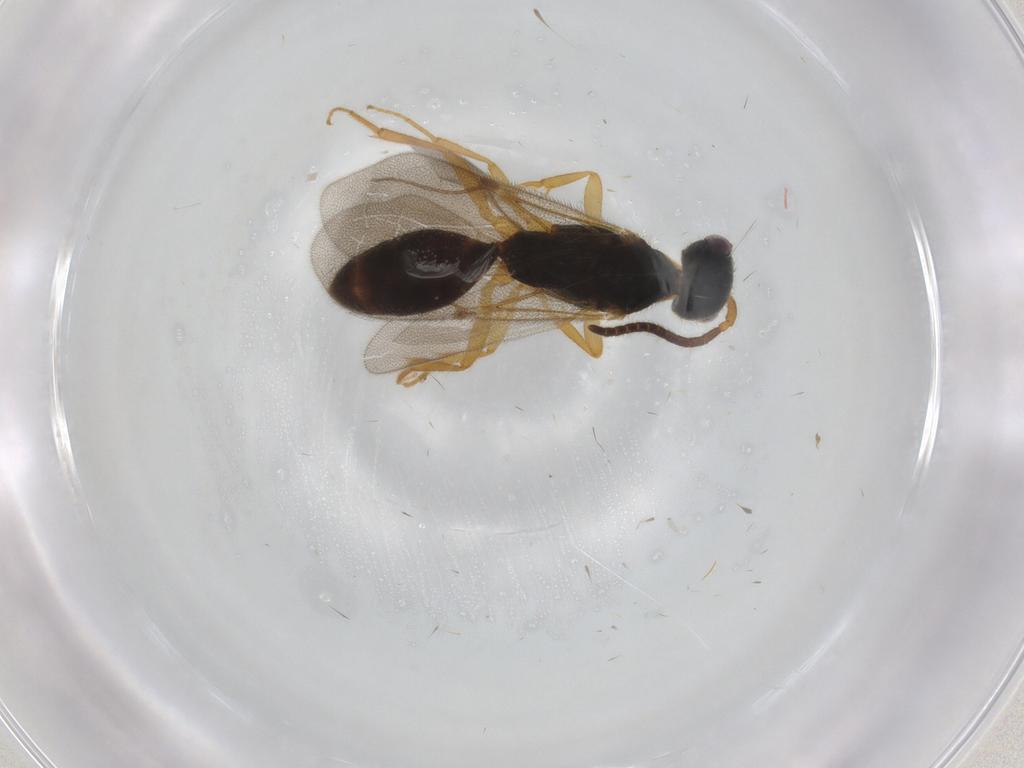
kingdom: Animalia
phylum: Arthropoda
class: Insecta
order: Hymenoptera
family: Bethylidae
